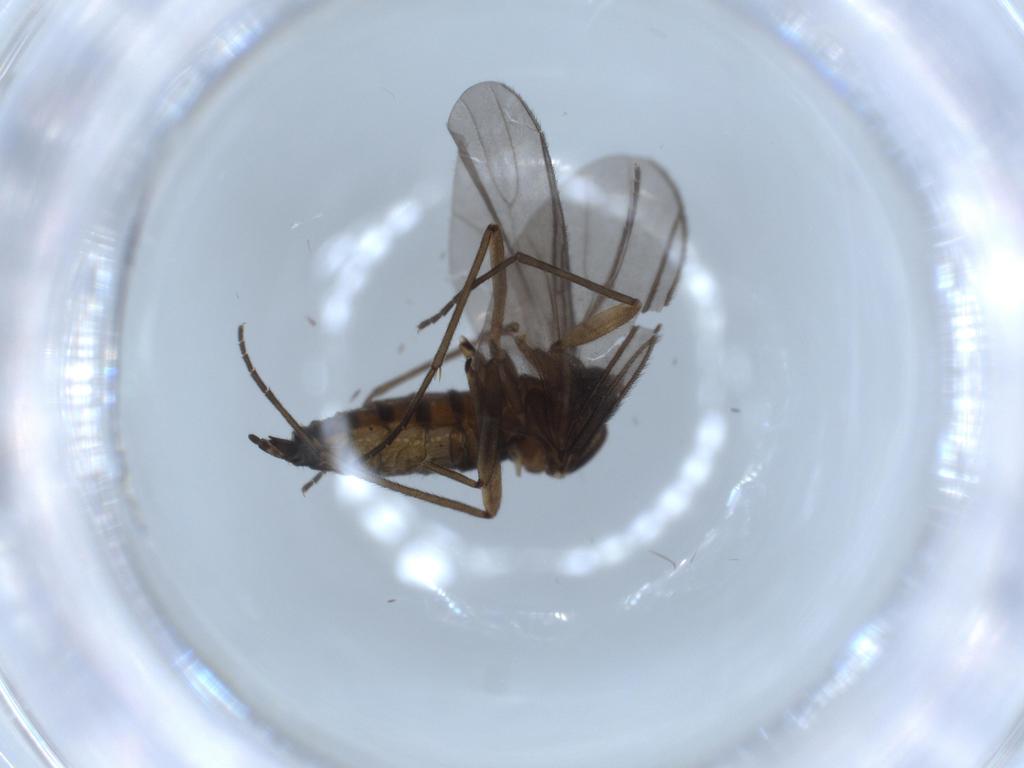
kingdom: Animalia
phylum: Arthropoda
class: Insecta
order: Diptera
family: Sciaridae
